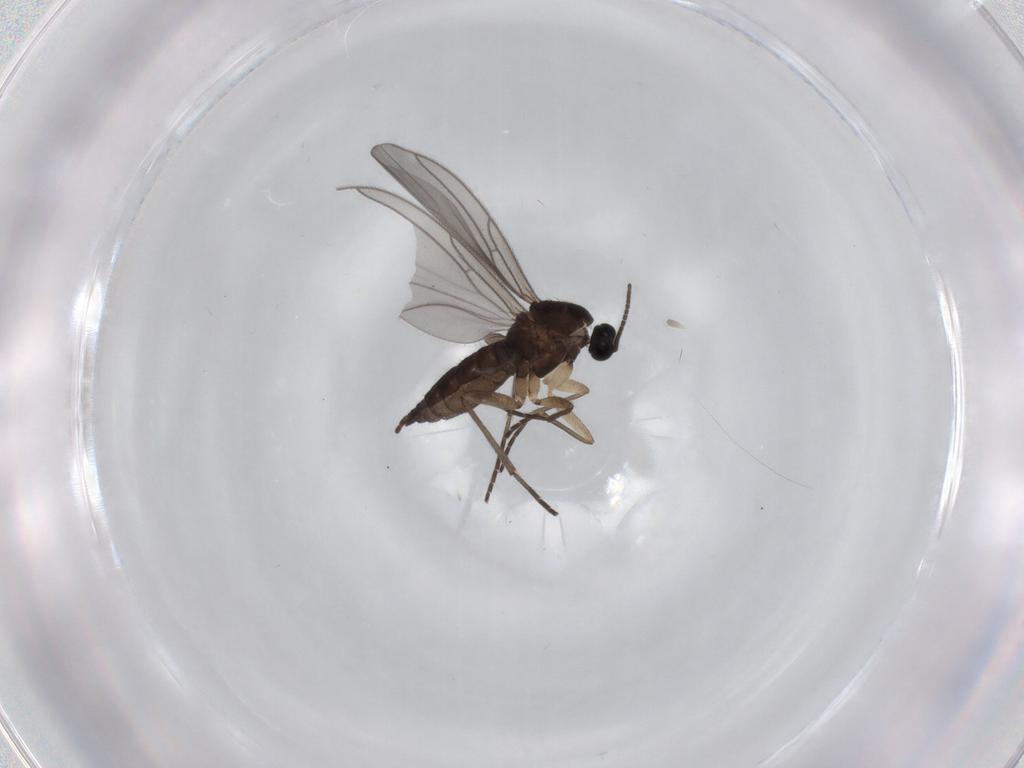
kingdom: Animalia
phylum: Arthropoda
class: Insecta
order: Diptera
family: Sciaridae
